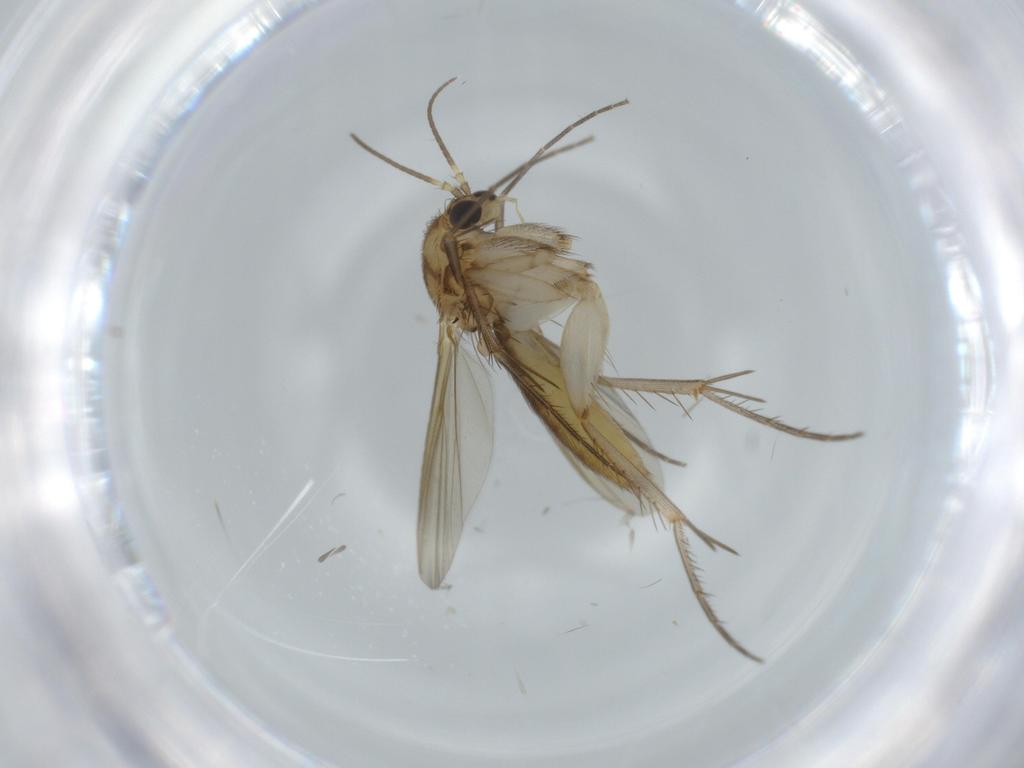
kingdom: Animalia
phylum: Arthropoda
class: Insecta
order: Diptera
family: Mycetophilidae
